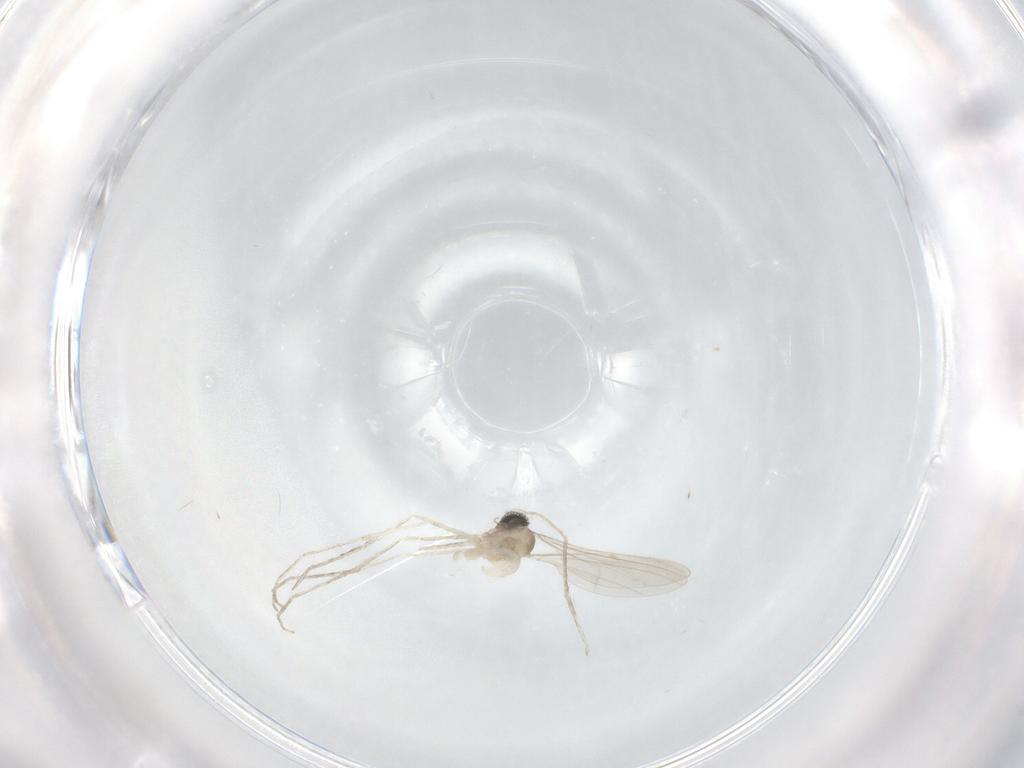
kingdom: Animalia
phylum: Arthropoda
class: Insecta
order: Diptera
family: Cecidomyiidae
